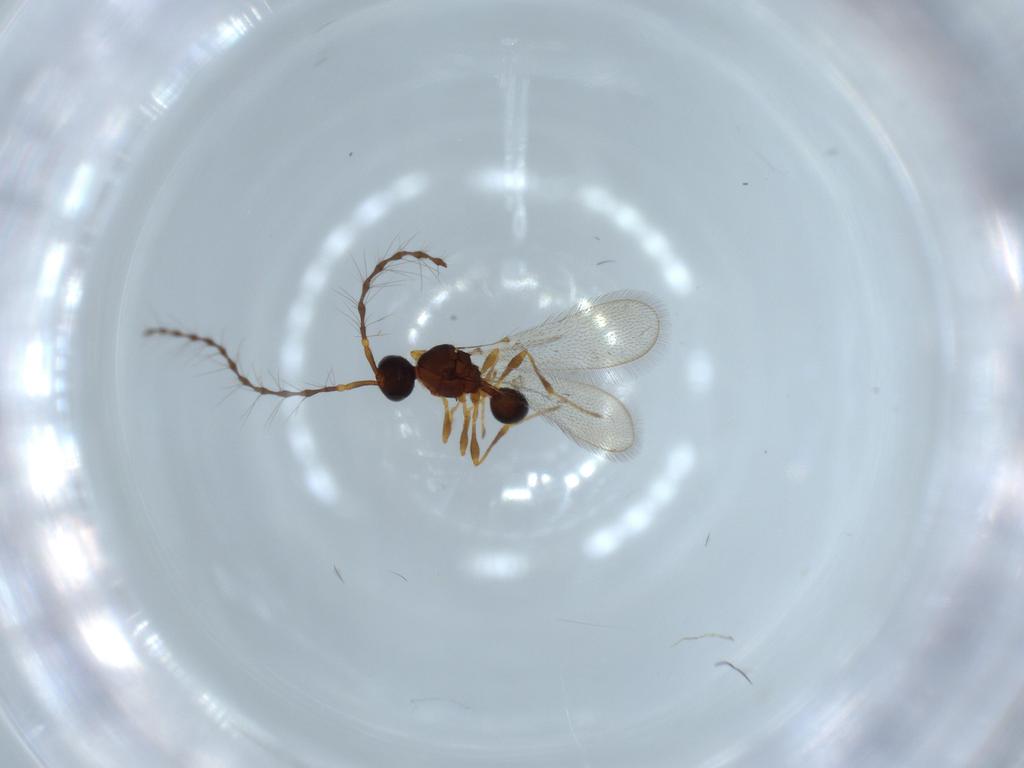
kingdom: Animalia
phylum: Arthropoda
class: Insecta
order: Hymenoptera
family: Diapriidae
